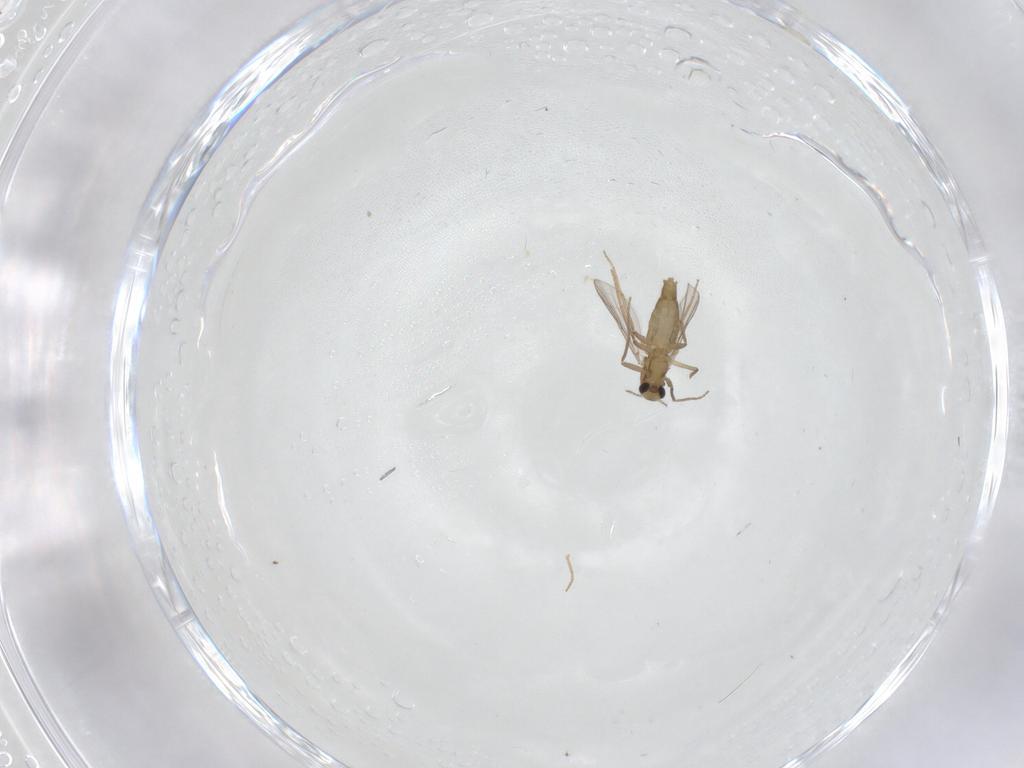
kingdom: Animalia
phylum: Arthropoda
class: Insecta
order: Diptera
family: Chironomidae
